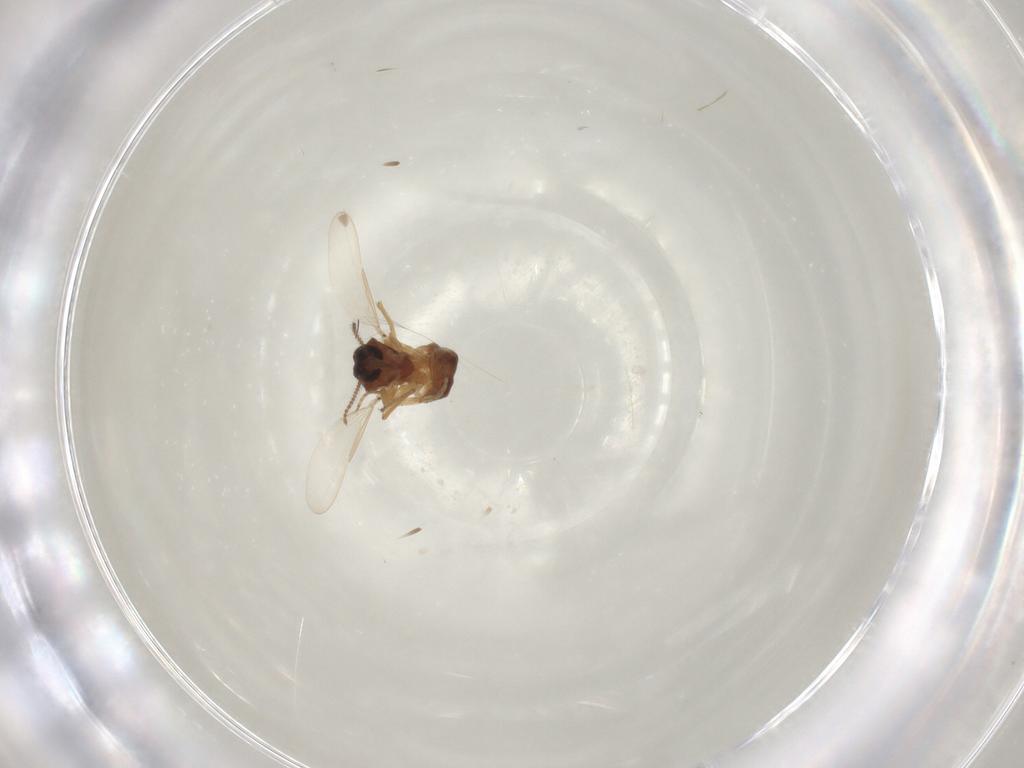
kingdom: Animalia
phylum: Arthropoda
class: Insecta
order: Diptera
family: Ceratopogonidae
